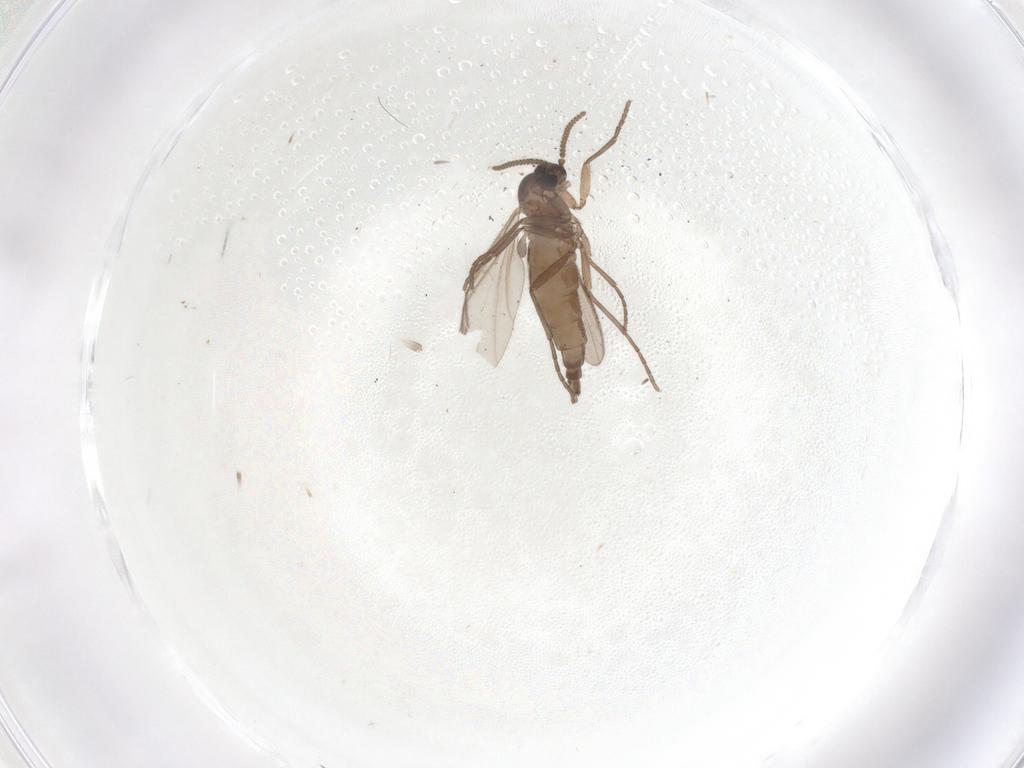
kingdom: Animalia
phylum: Arthropoda
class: Insecta
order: Diptera
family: Sciaridae
